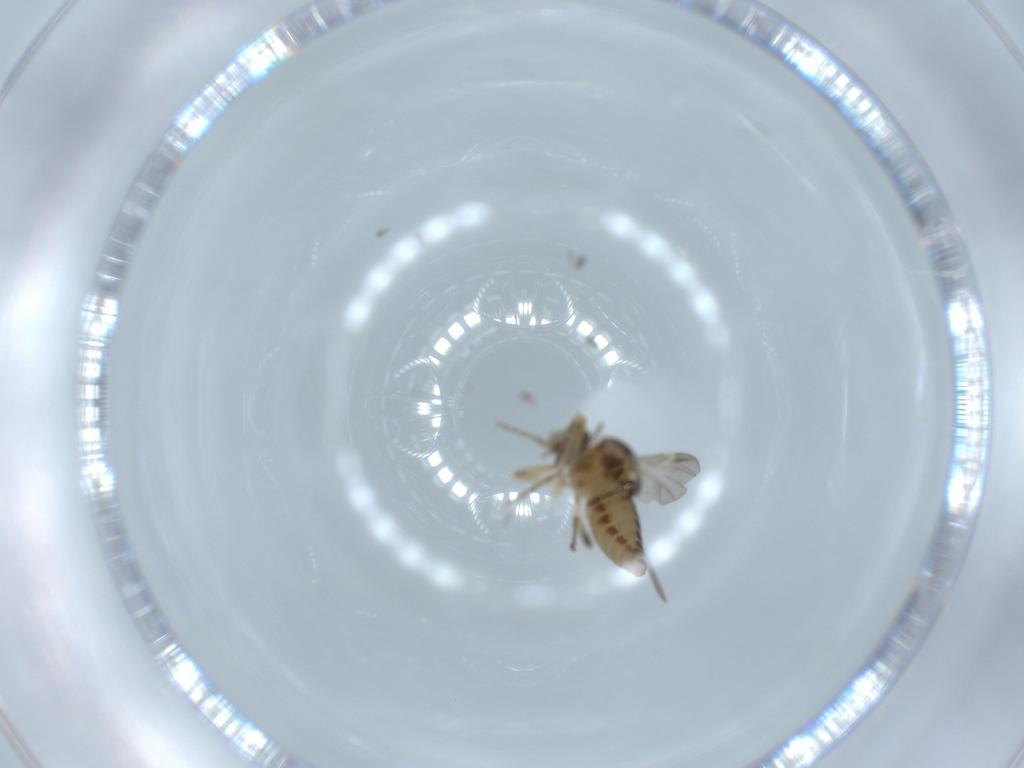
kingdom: Animalia
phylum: Arthropoda
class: Insecta
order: Diptera
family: Ceratopogonidae
